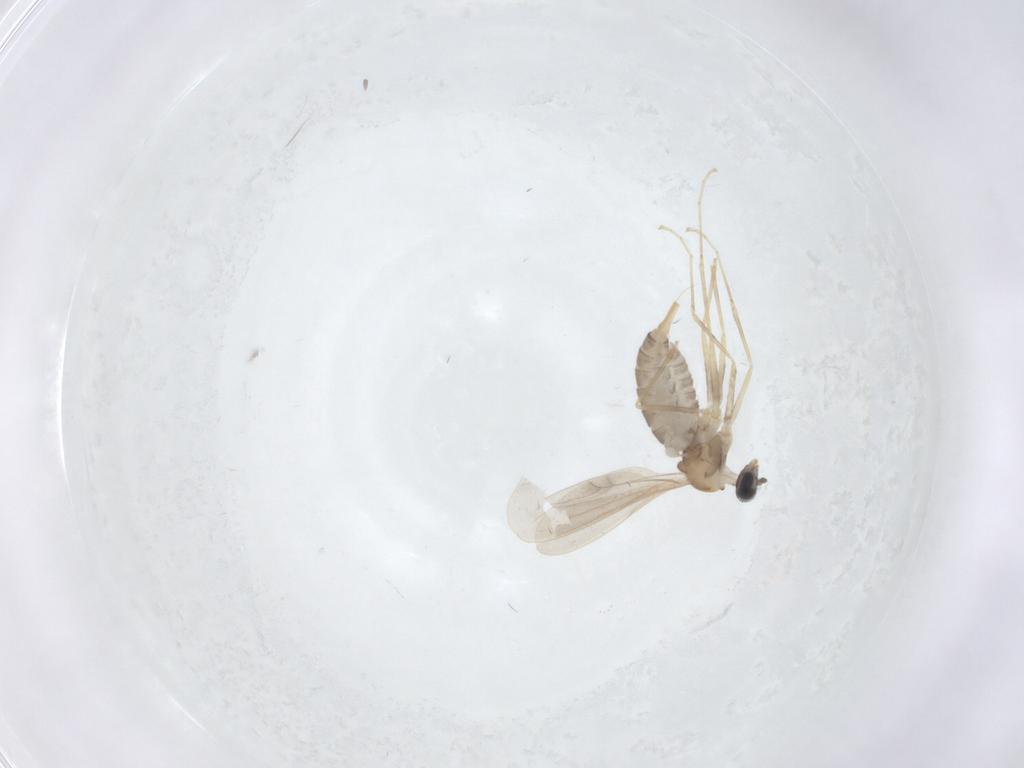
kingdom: Animalia
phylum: Arthropoda
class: Insecta
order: Diptera
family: Cecidomyiidae
